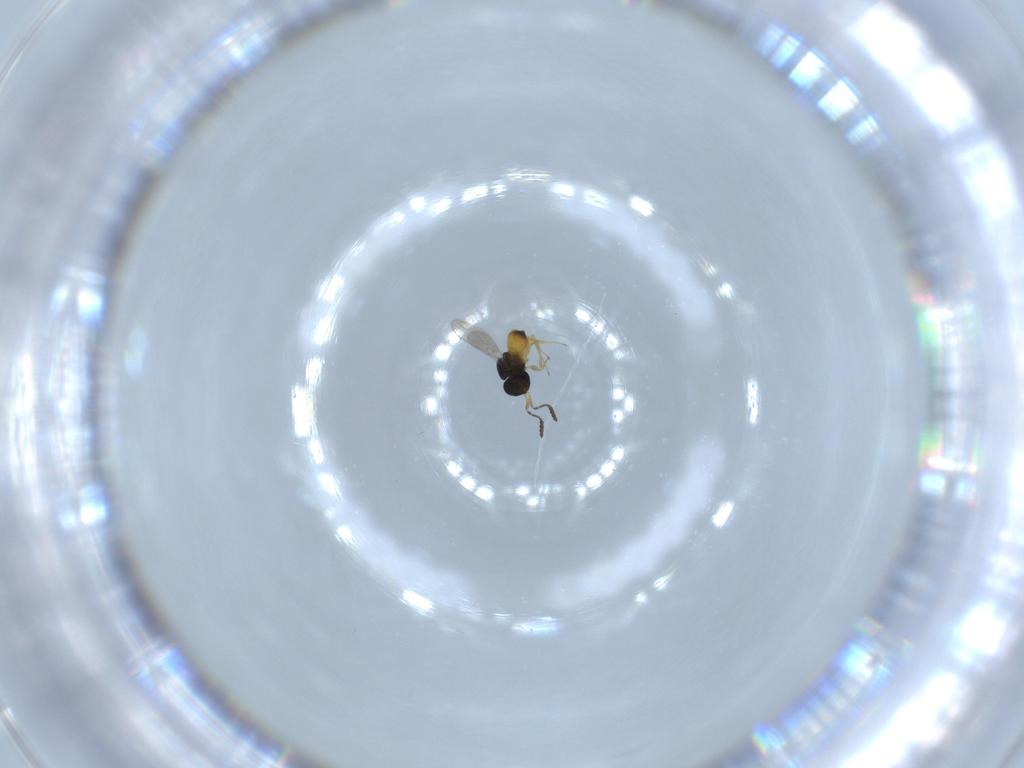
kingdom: Animalia
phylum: Arthropoda
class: Insecta
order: Hymenoptera
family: Scelionidae
